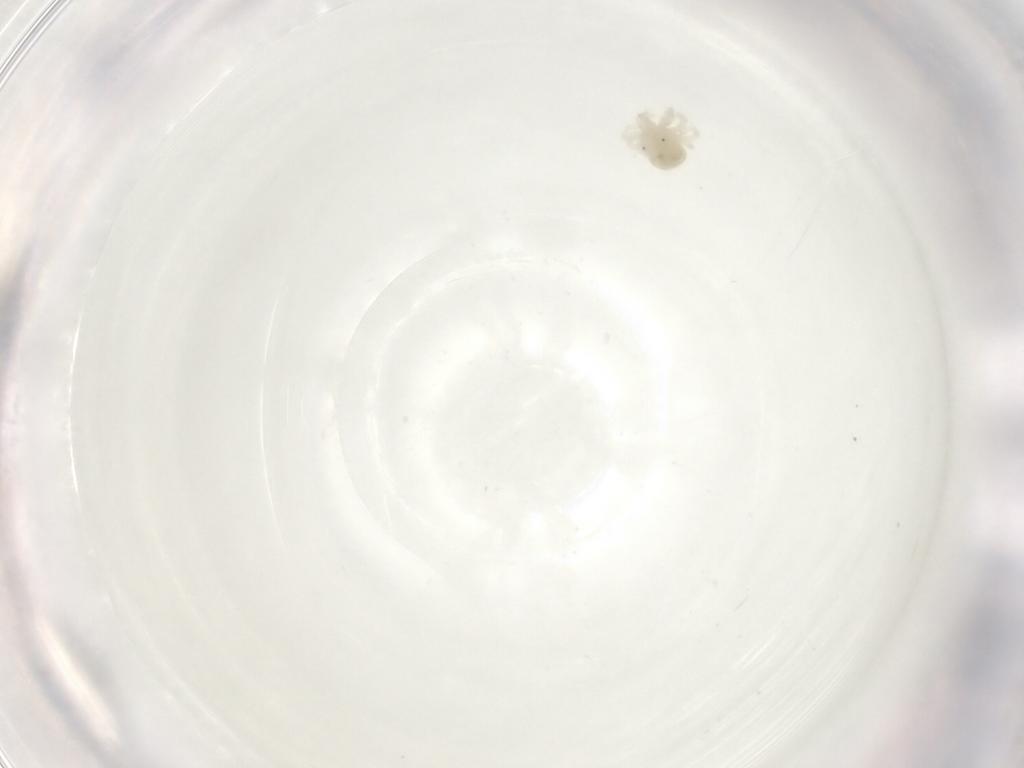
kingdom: Animalia
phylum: Arthropoda
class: Arachnida
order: Trombidiformes
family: Anystidae
